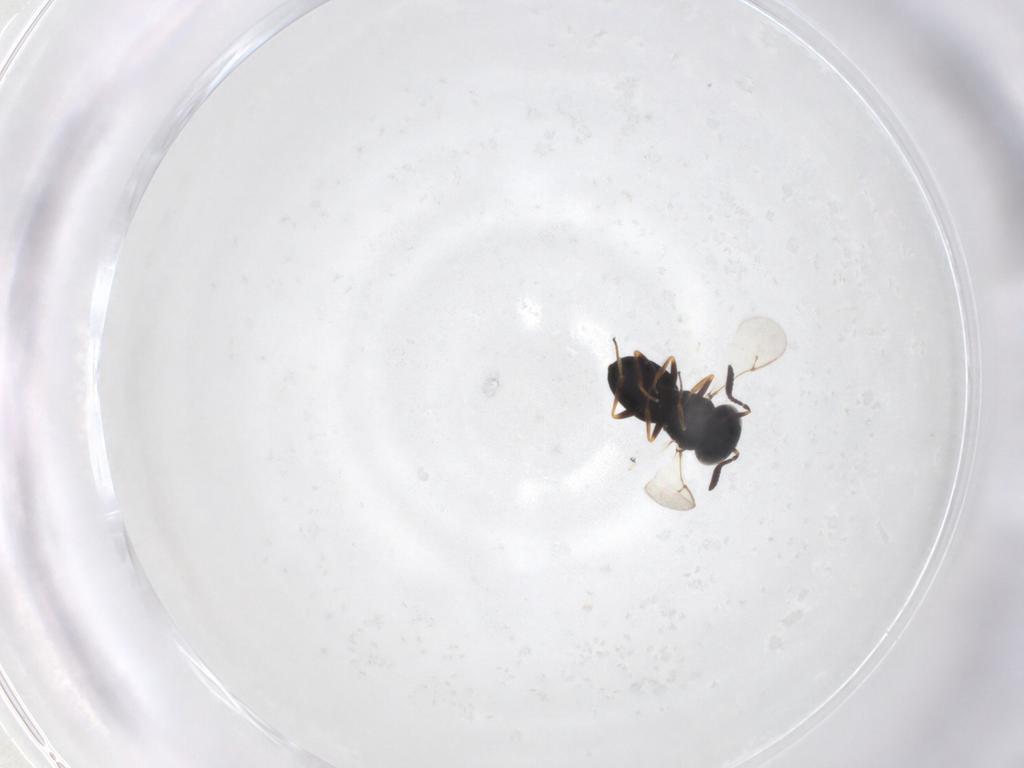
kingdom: Animalia
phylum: Arthropoda
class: Insecta
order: Hymenoptera
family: Scelionidae
